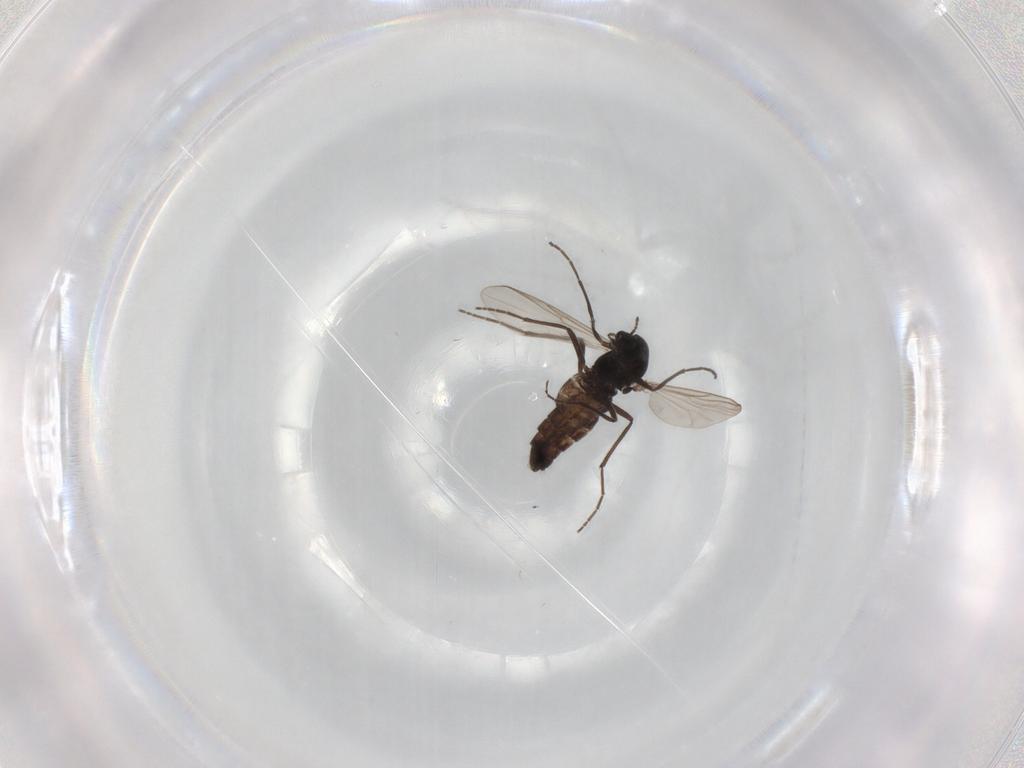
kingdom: Animalia
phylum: Arthropoda
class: Insecta
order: Diptera
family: Chironomidae
